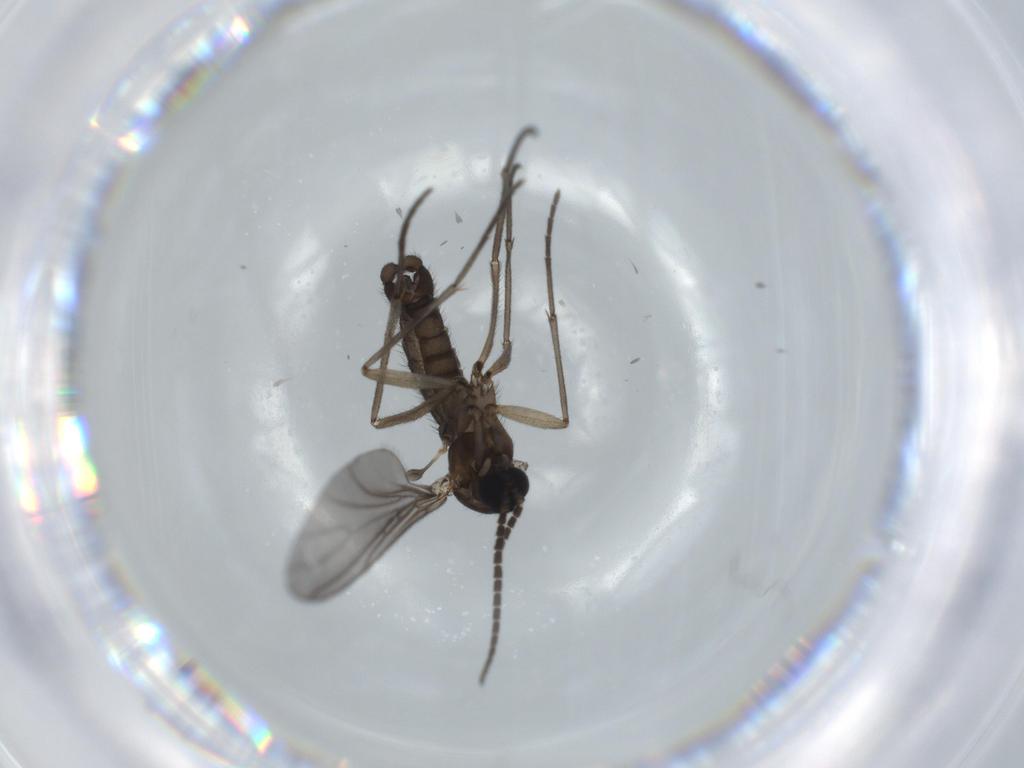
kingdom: Animalia
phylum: Arthropoda
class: Insecta
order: Diptera
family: Sciaridae
